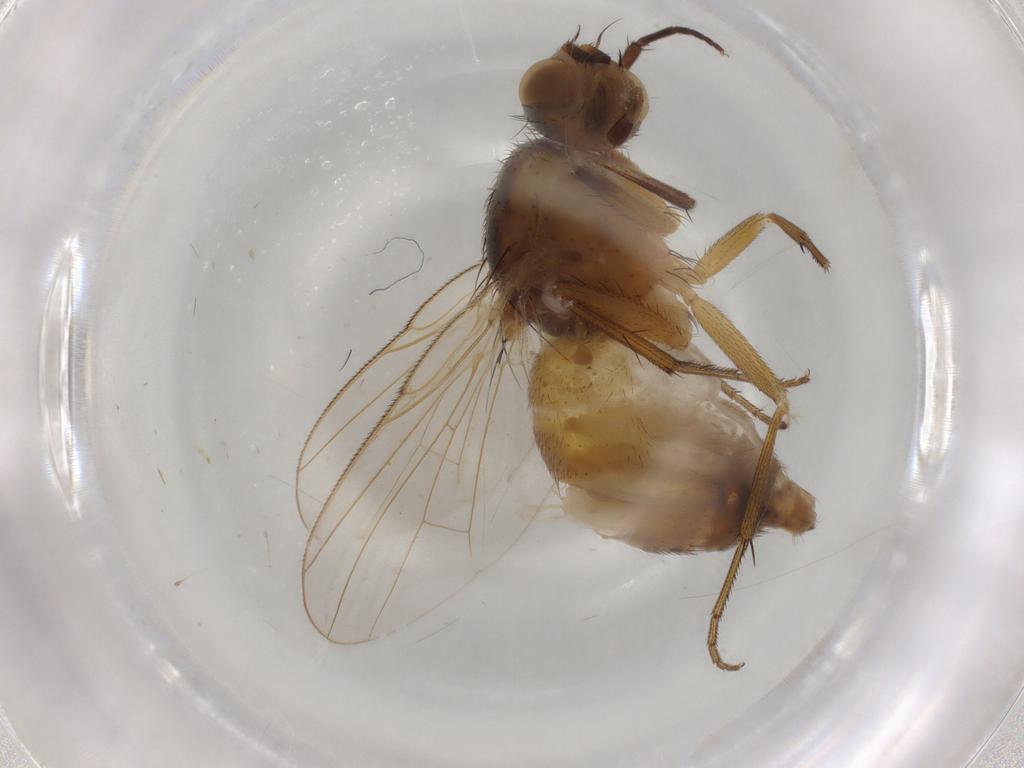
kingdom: Animalia
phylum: Arthropoda
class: Insecta
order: Diptera
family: Muscidae
